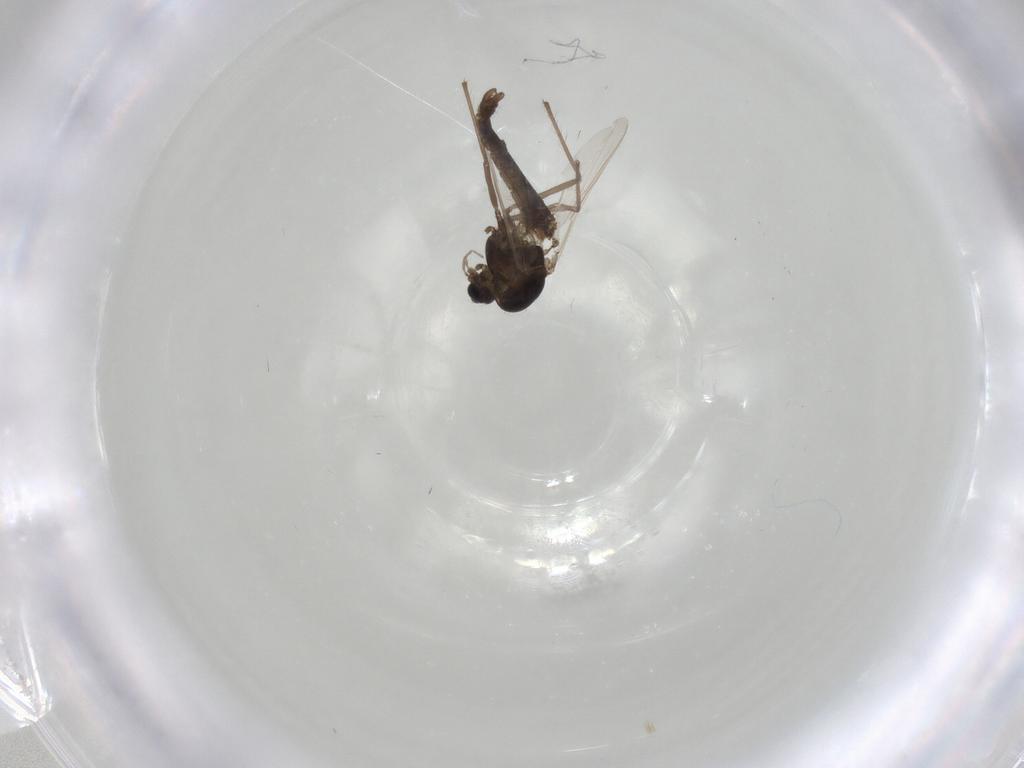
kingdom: Animalia
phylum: Arthropoda
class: Insecta
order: Diptera
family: Chironomidae
